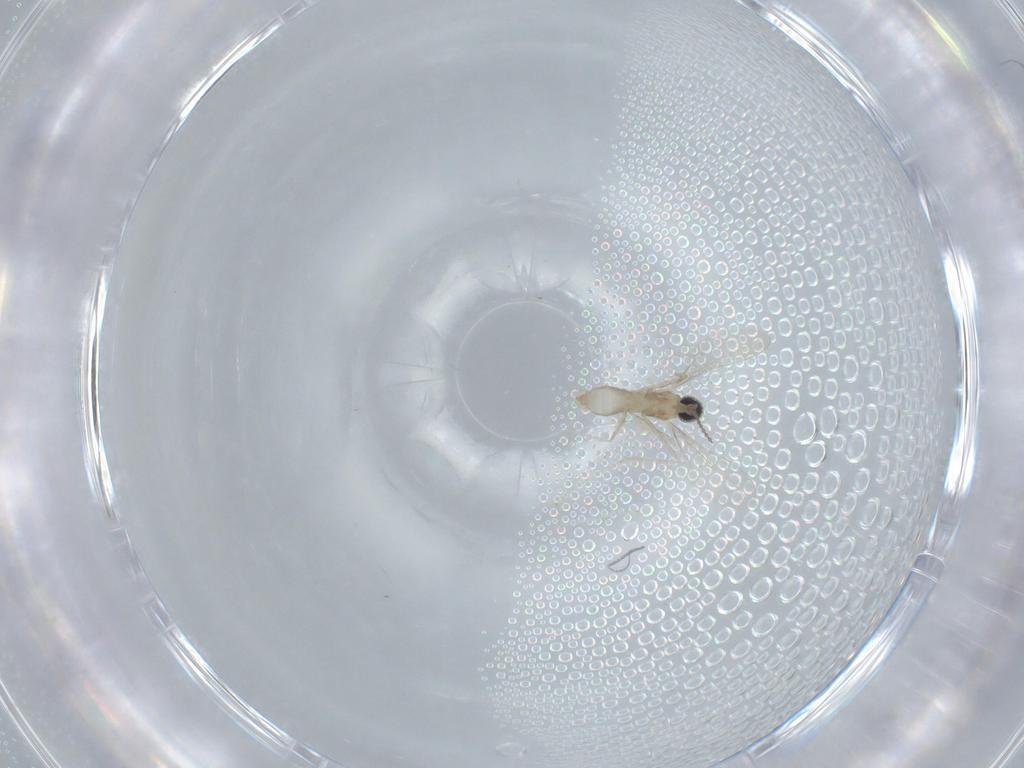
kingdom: Animalia
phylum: Arthropoda
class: Insecta
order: Diptera
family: Cecidomyiidae
